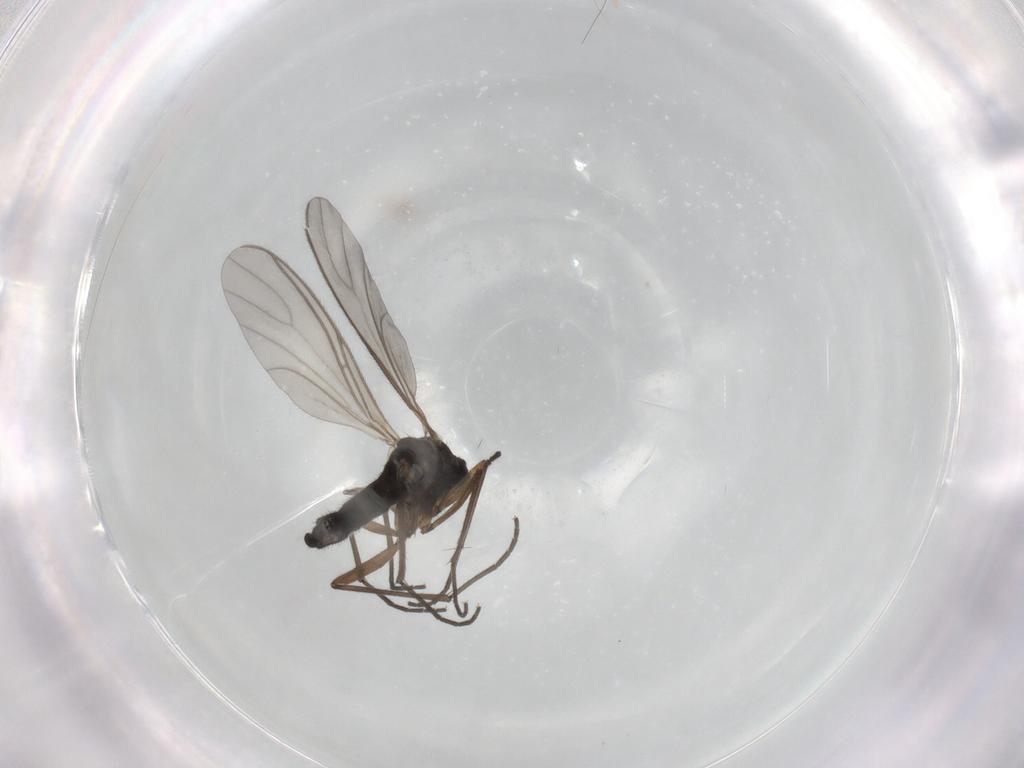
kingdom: Animalia
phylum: Arthropoda
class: Insecta
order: Diptera
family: Sciaridae
